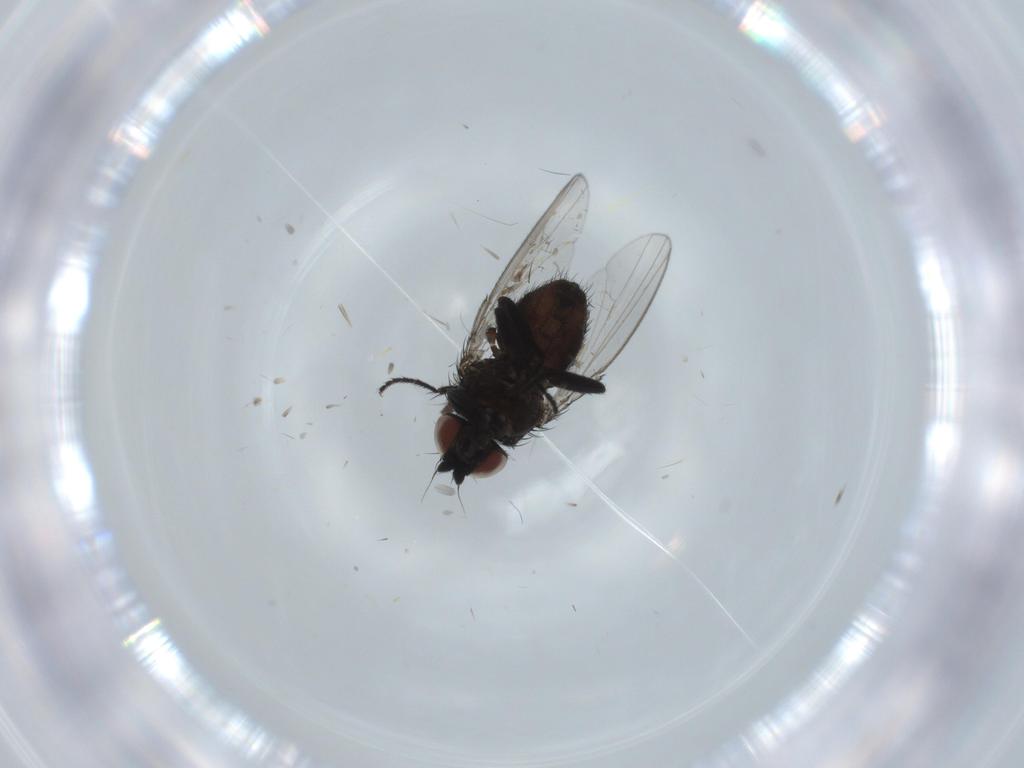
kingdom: Animalia
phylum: Arthropoda
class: Insecta
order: Diptera
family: Milichiidae
